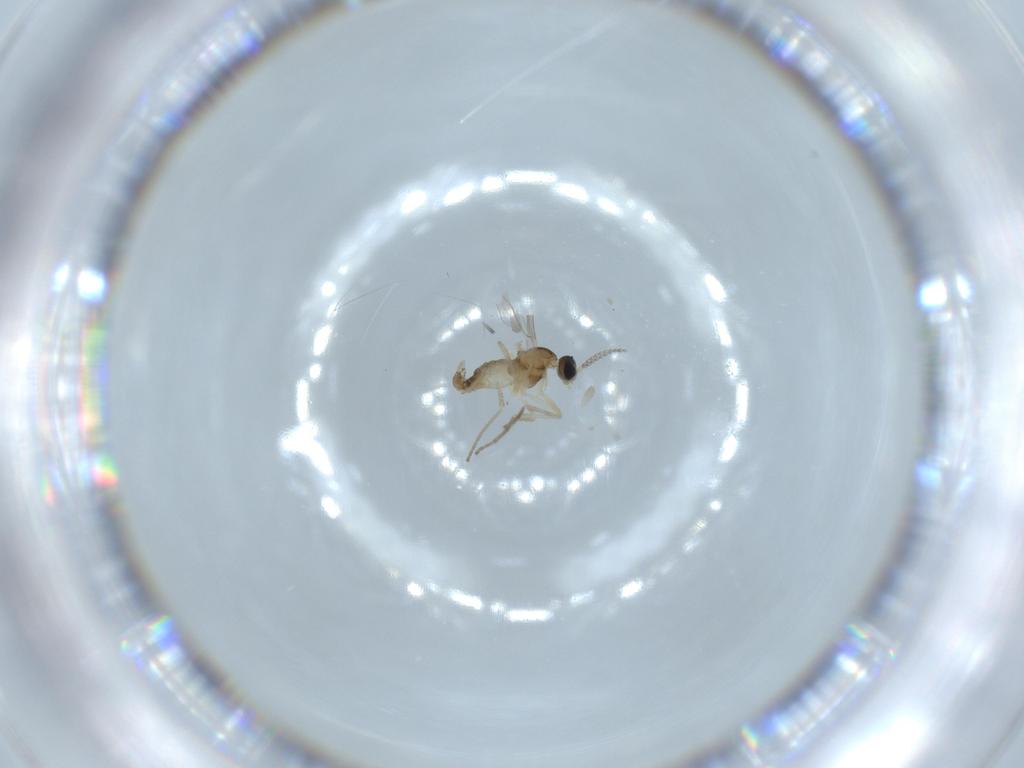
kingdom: Animalia
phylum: Arthropoda
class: Insecta
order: Diptera
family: Cecidomyiidae
